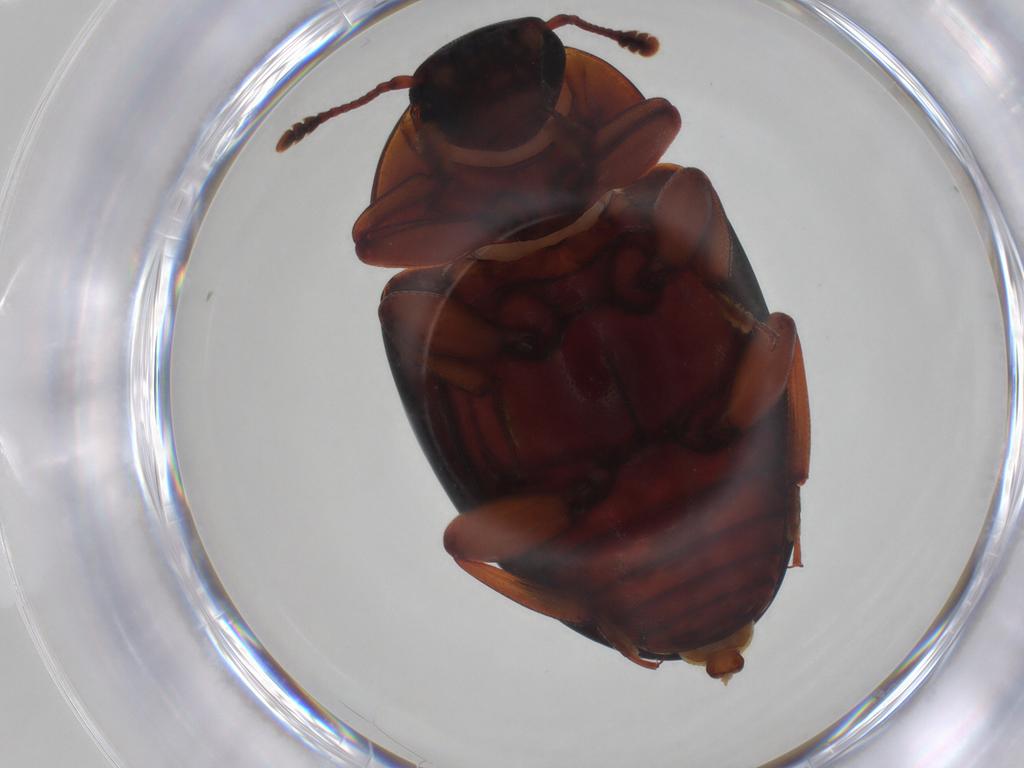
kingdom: Animalia
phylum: Arthropoda
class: Insecta
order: Coleoptera
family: Zopheridae
